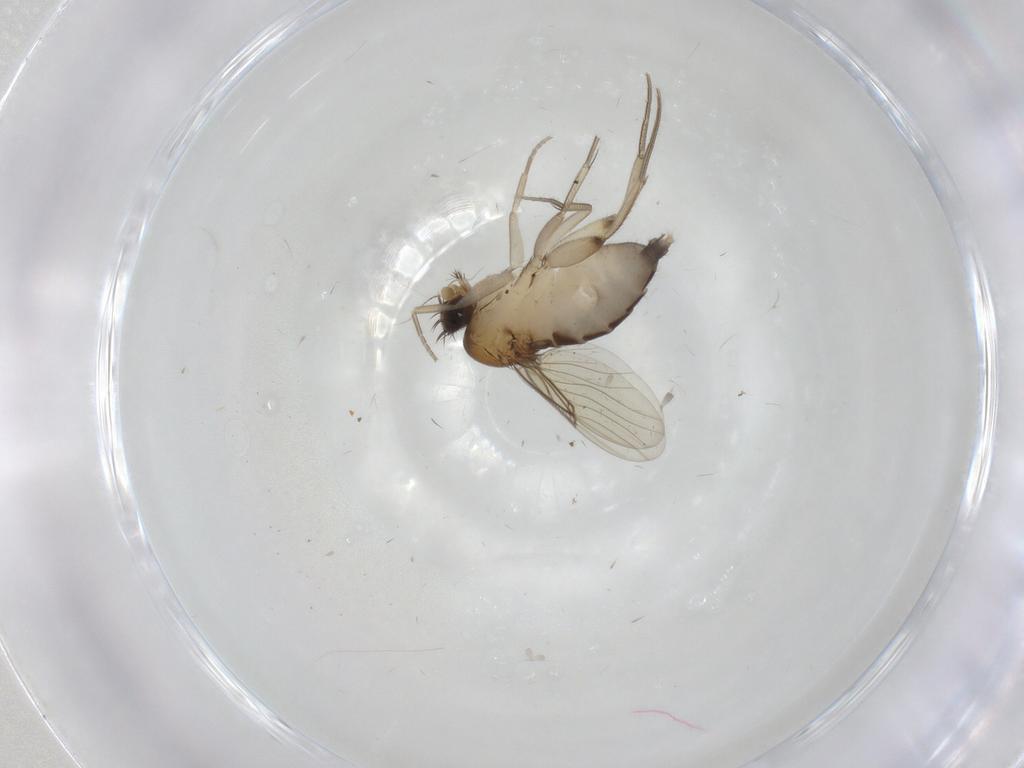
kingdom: Animalia
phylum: Arthropoda
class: Insecta
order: Diptera
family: Phoridae
